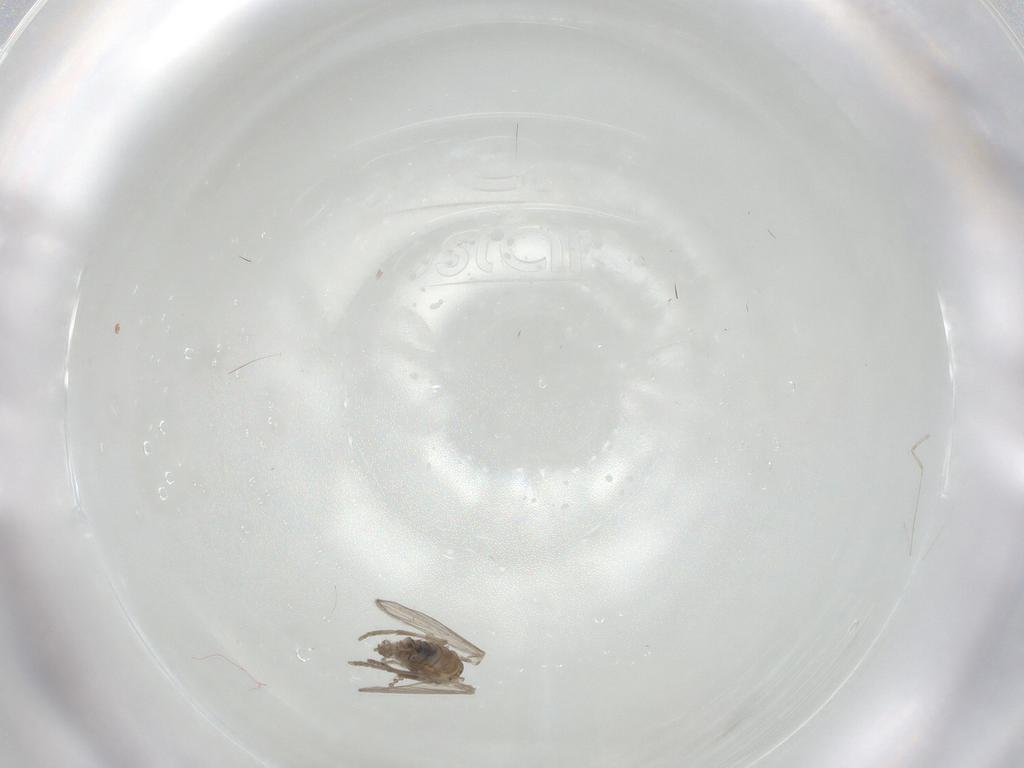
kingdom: Animalia
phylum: Arthropoda
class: Insecta
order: Diptera
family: Psychodidae
